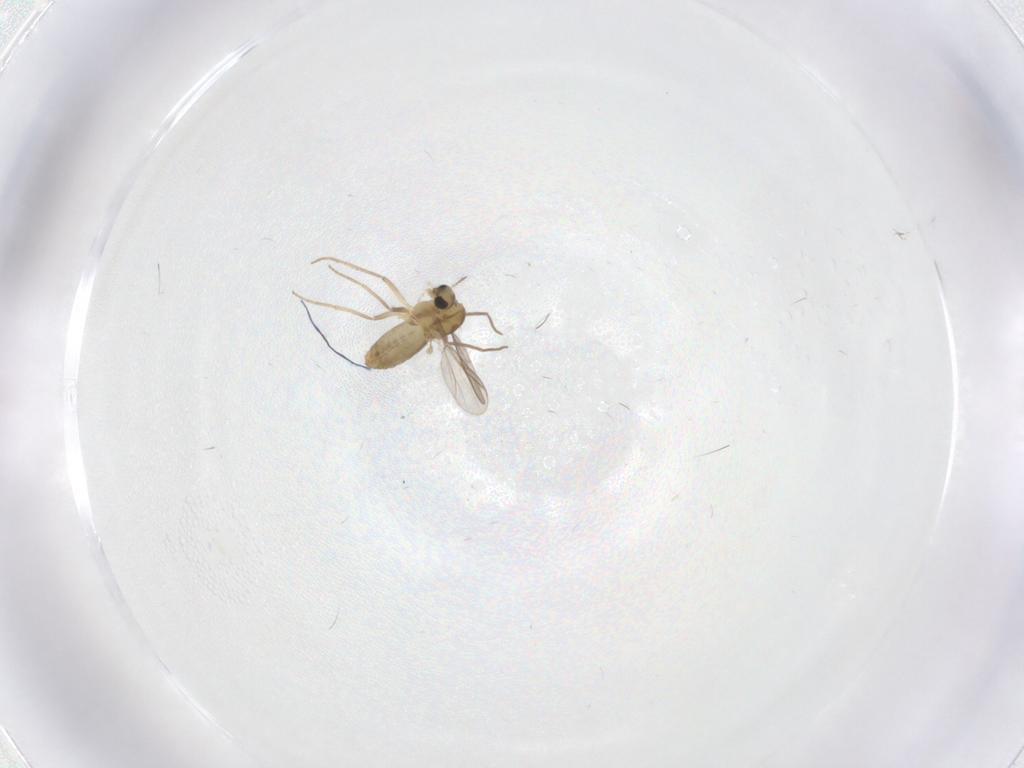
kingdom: Animalia
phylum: Arthropoda
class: Insecta
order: Diptera
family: Chironomidae
